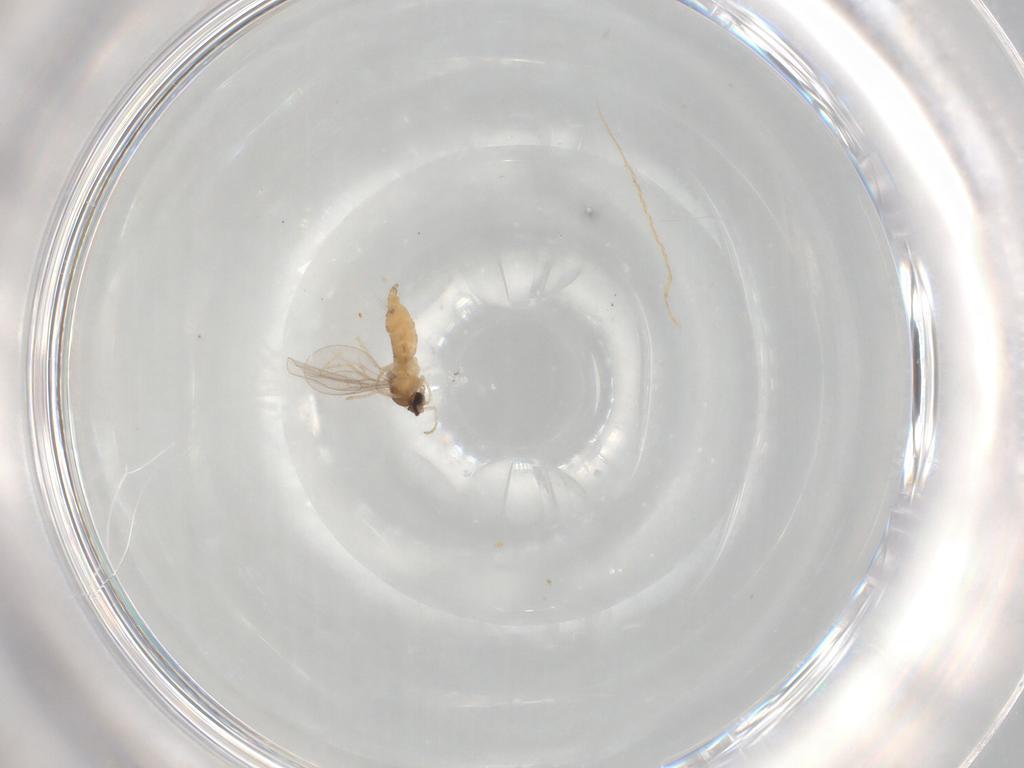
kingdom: Animalia
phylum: Arthropoda
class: Insecta
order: Diptera
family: Cecidomyiidae
